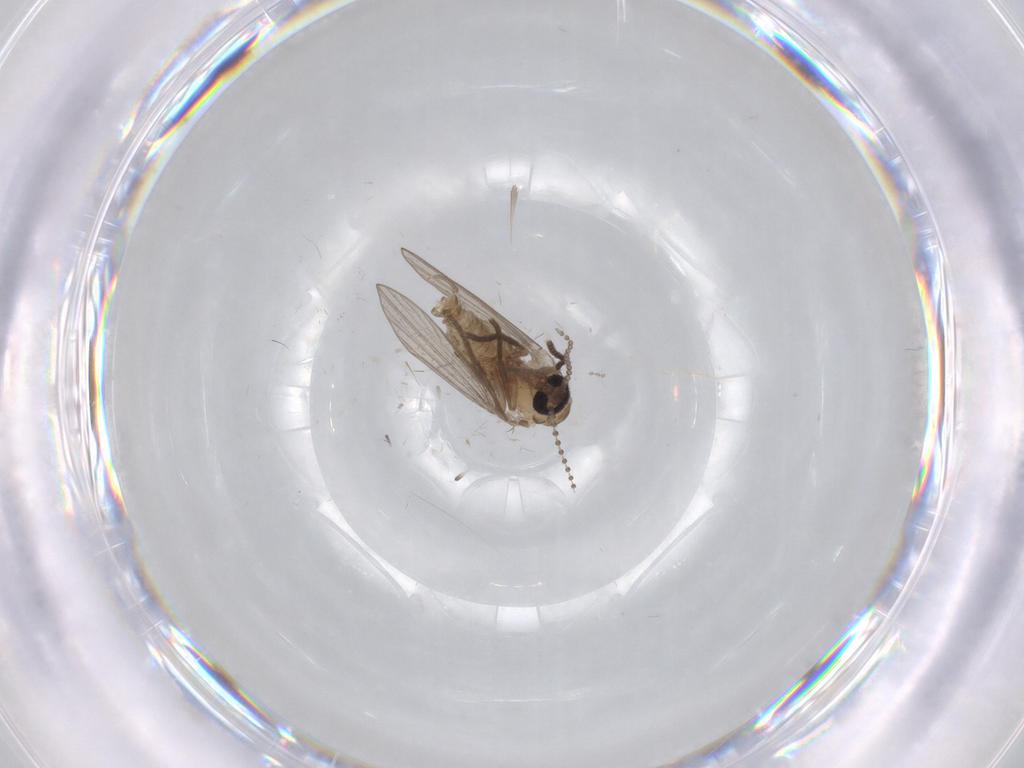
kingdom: Animalia
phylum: Arthropoda
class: Insecta
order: Diptera
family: Psychodidae
